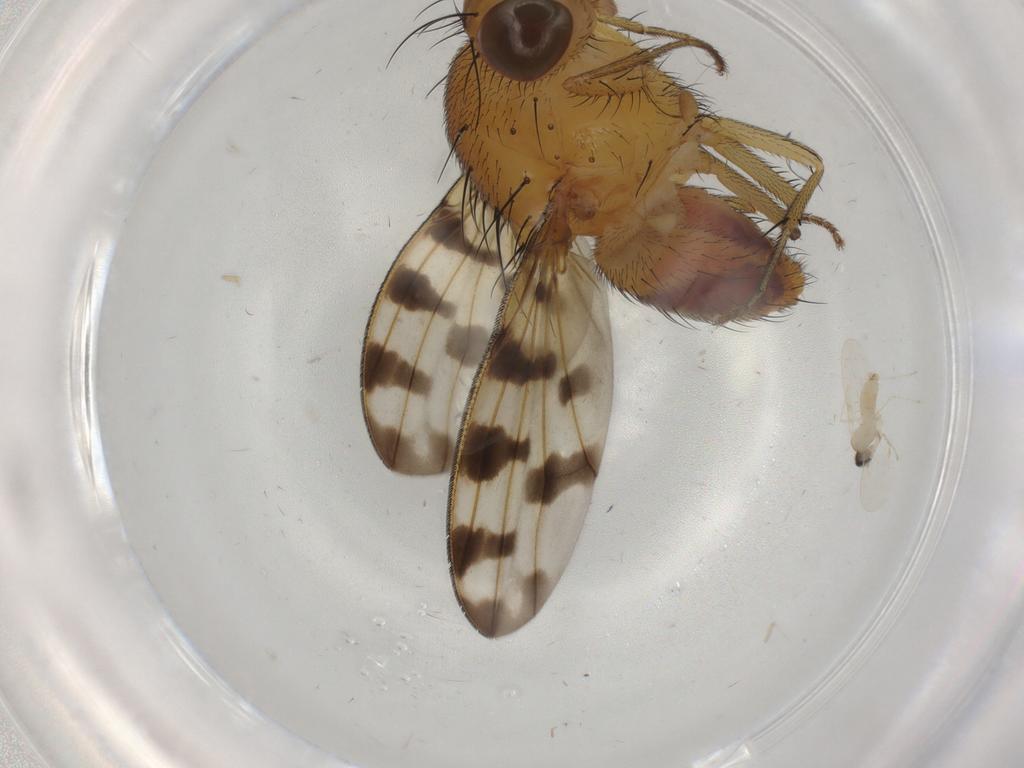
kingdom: Animalia
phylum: Arthropoda
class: Insecta
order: Diptera
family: Cecidomyiidae
